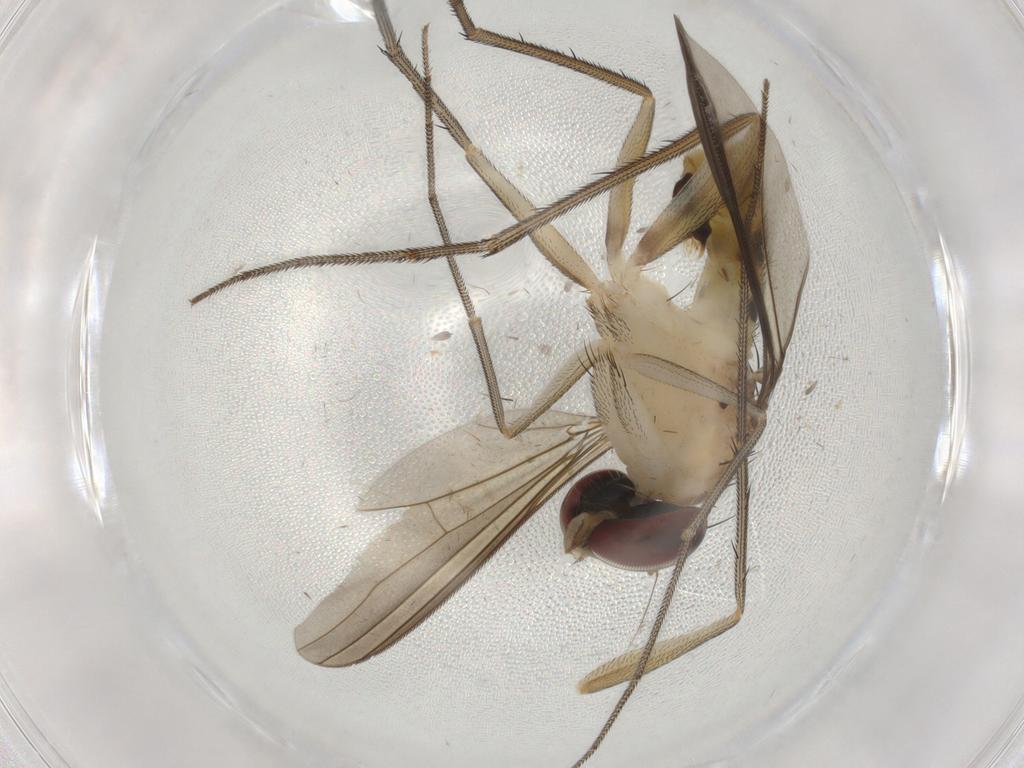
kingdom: Animalia
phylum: Arthropoda
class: Insecta
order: Diptera
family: Dolichopodidae
